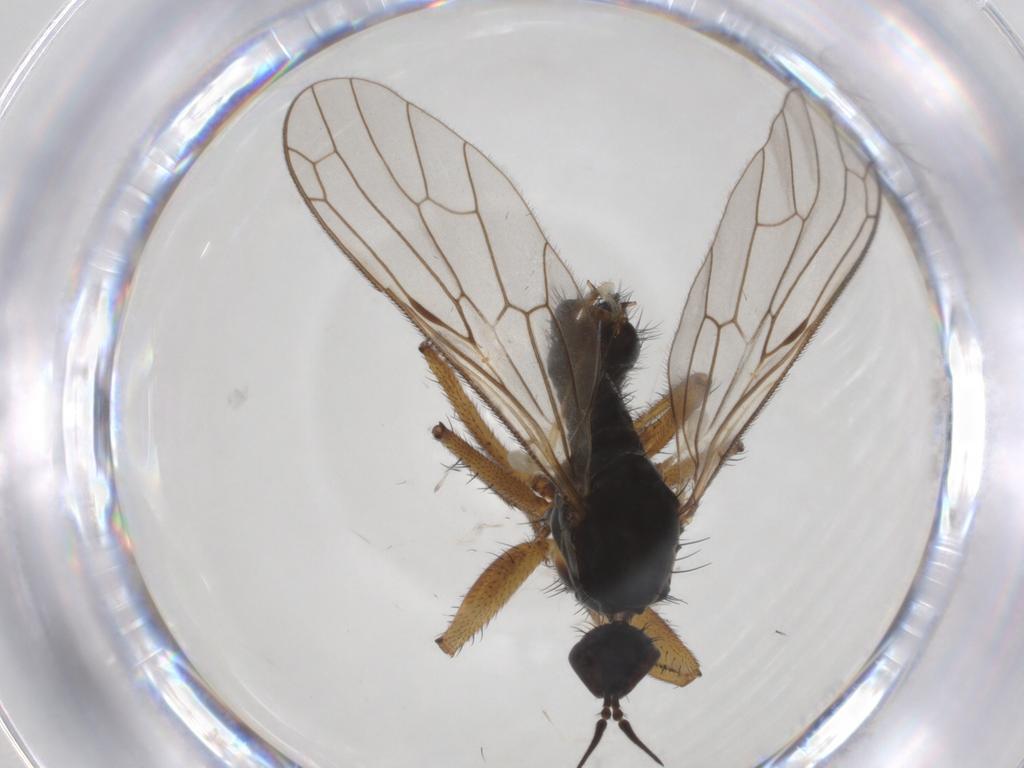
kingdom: Animalia
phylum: Arthropoda
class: Insecta
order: Diptera
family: Empididae
